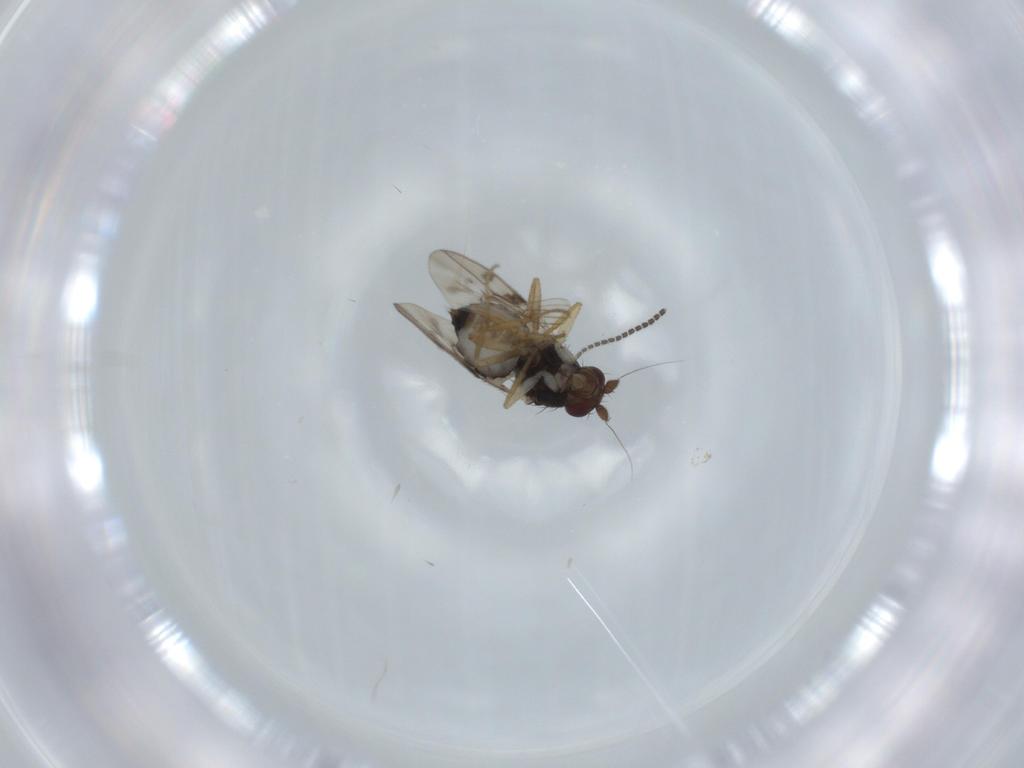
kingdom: Animalia
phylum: Arthropoda
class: Insecta
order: Diptera
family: Sphaeroceridae
